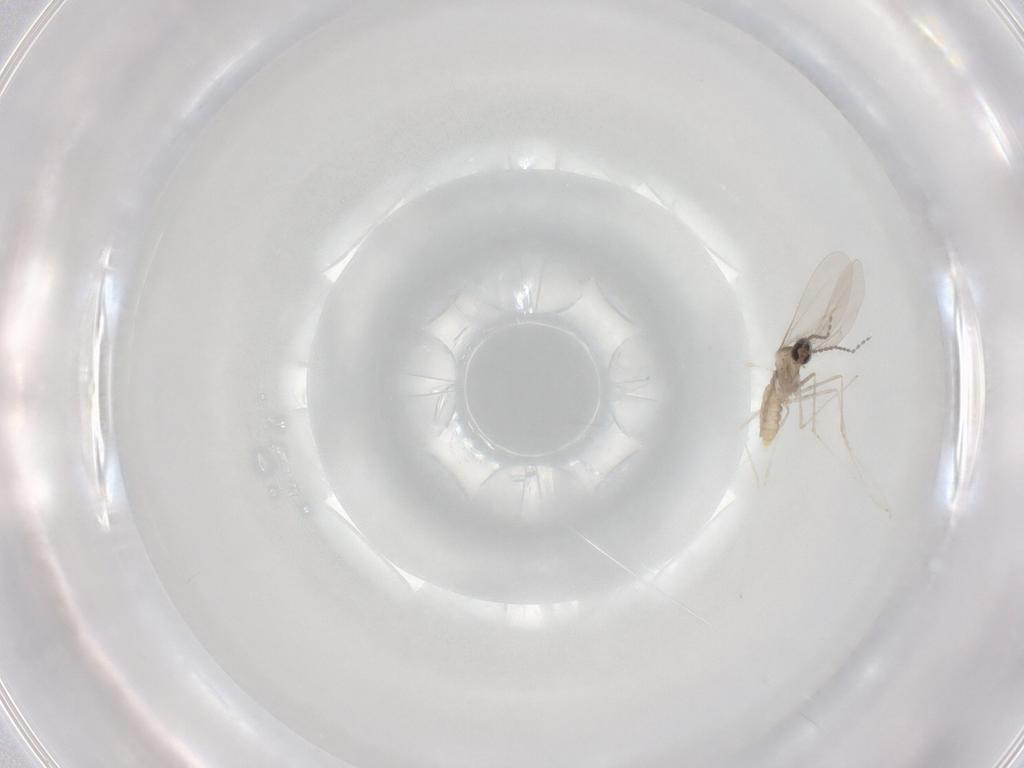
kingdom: Animalia
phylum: Arthropoda
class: Insecta
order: Diptera
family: Cecidomyiidae
